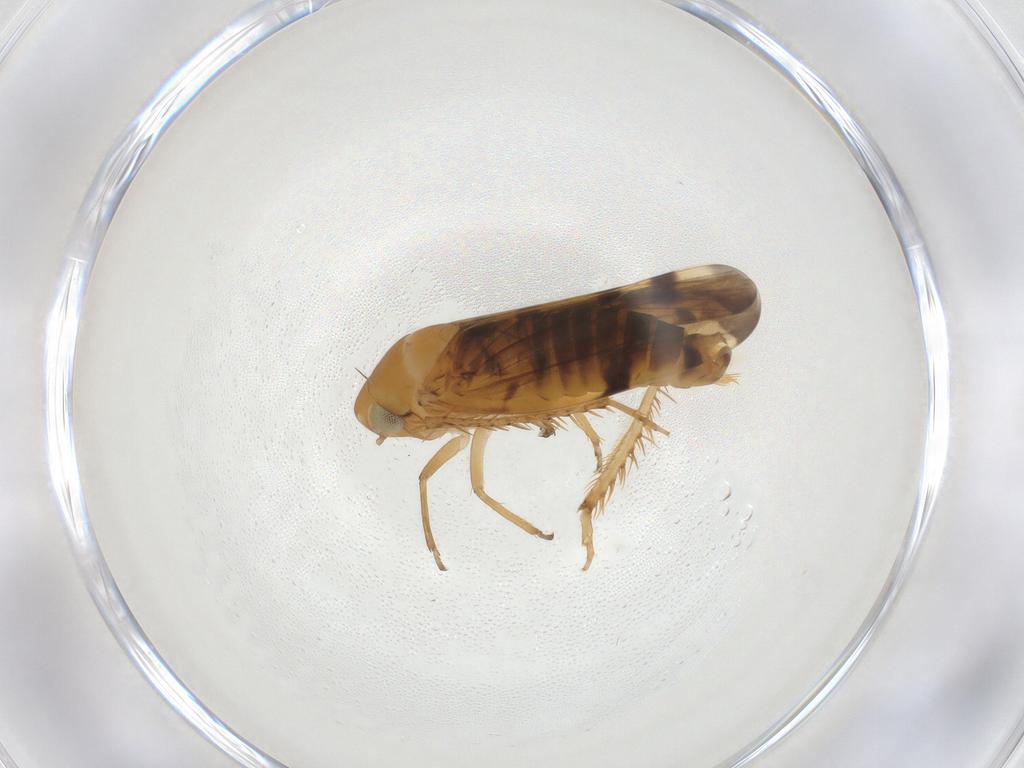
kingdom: Animalia
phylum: Arthropoda
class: Insecta
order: Hemiptera
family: Cicadellidae
